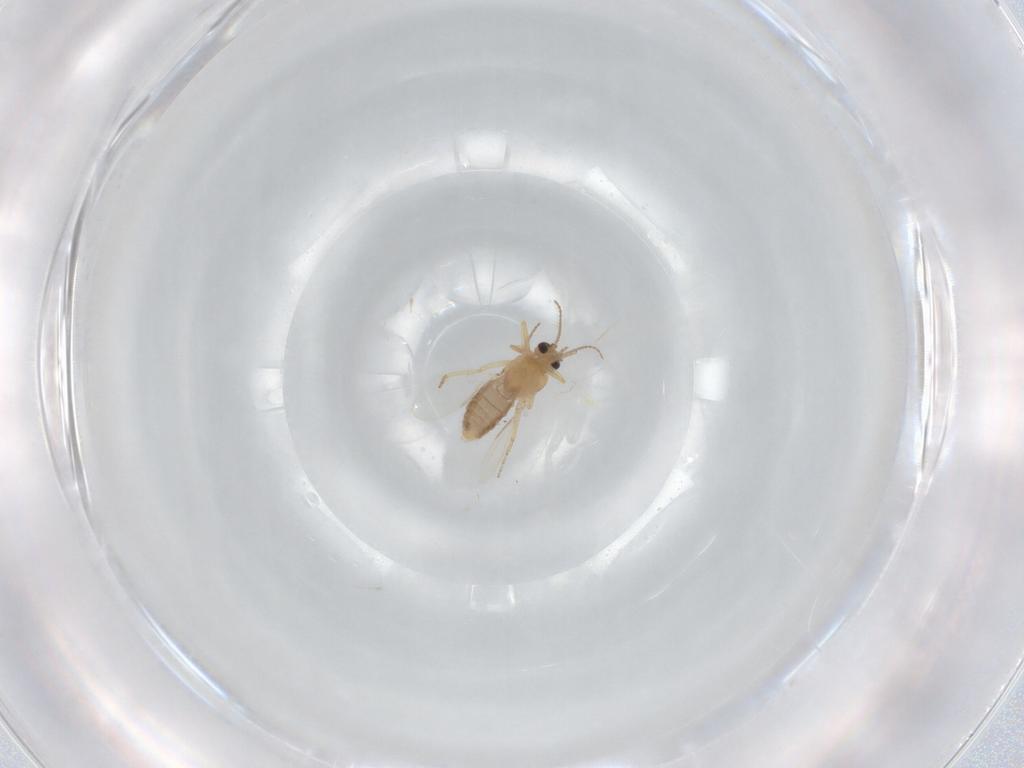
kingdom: Animalia
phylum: Arthropoda
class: Insecta
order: Diptera
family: Ceratopogonidae
